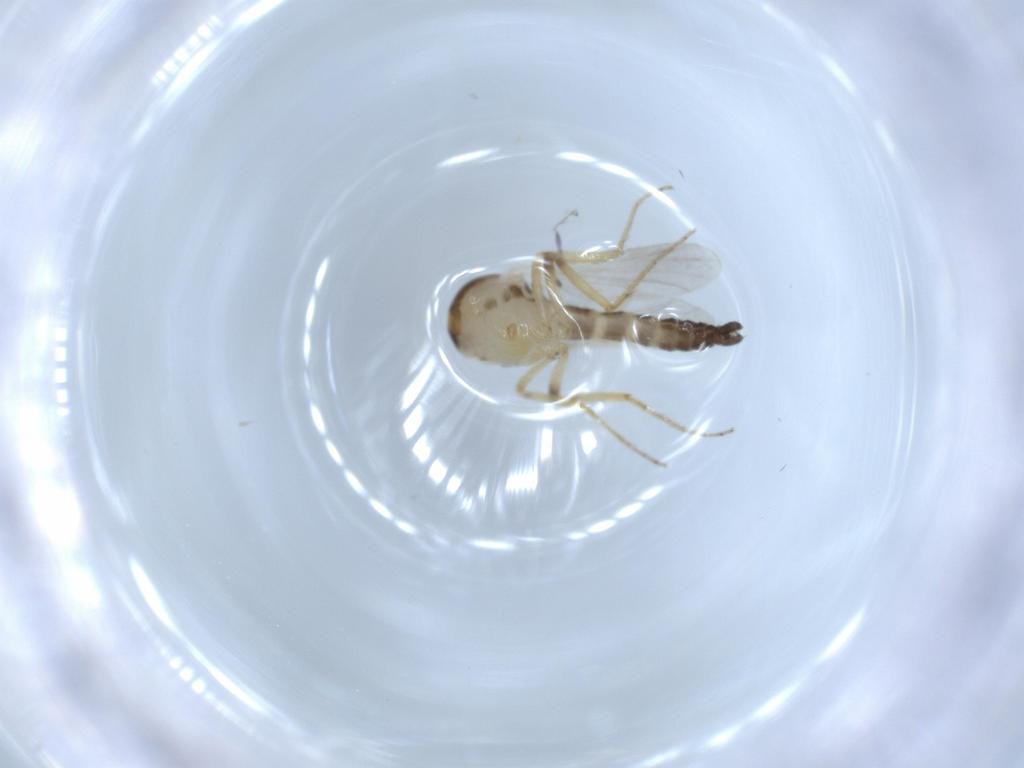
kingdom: Animalia
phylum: Arthropoda
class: Insecta
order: Diptera
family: Ceratopogonidae
